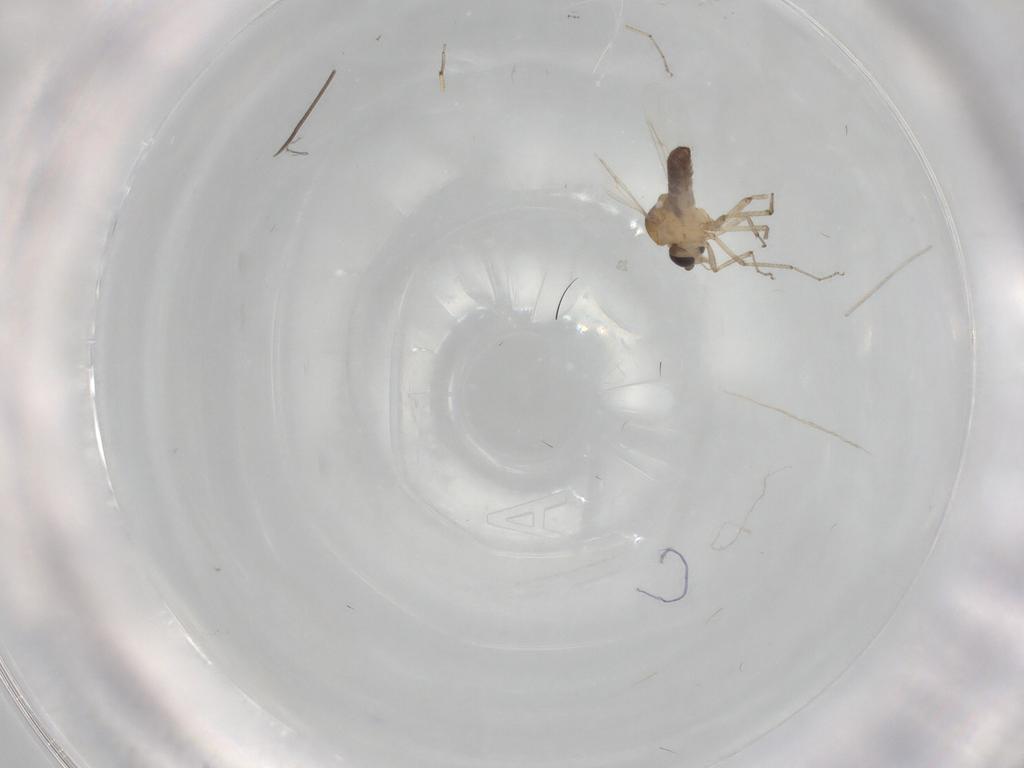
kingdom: Animalia
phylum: Arthropoda
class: Insecta
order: Diptera
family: Ceratopogonidae
